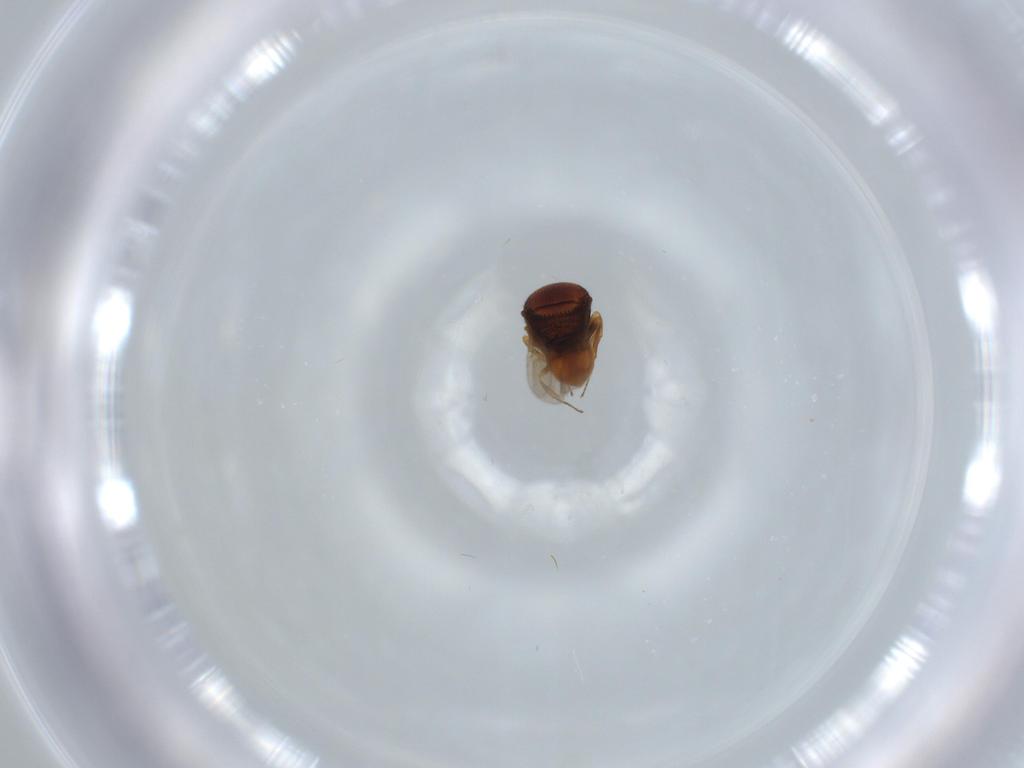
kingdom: Animalia
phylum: Arthropoda
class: Insecta
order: Hymenoptera
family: Scelionidae
